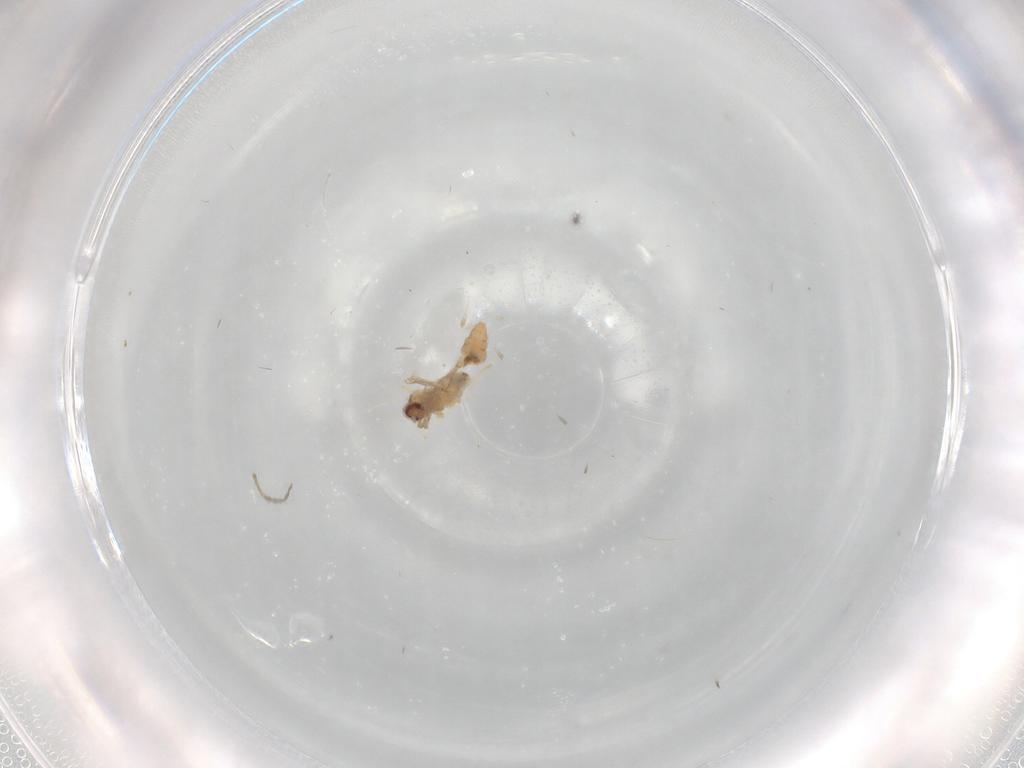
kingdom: Animalia
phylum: Arthropoda
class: Insecta
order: Diptera
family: Cecidomyiidae
